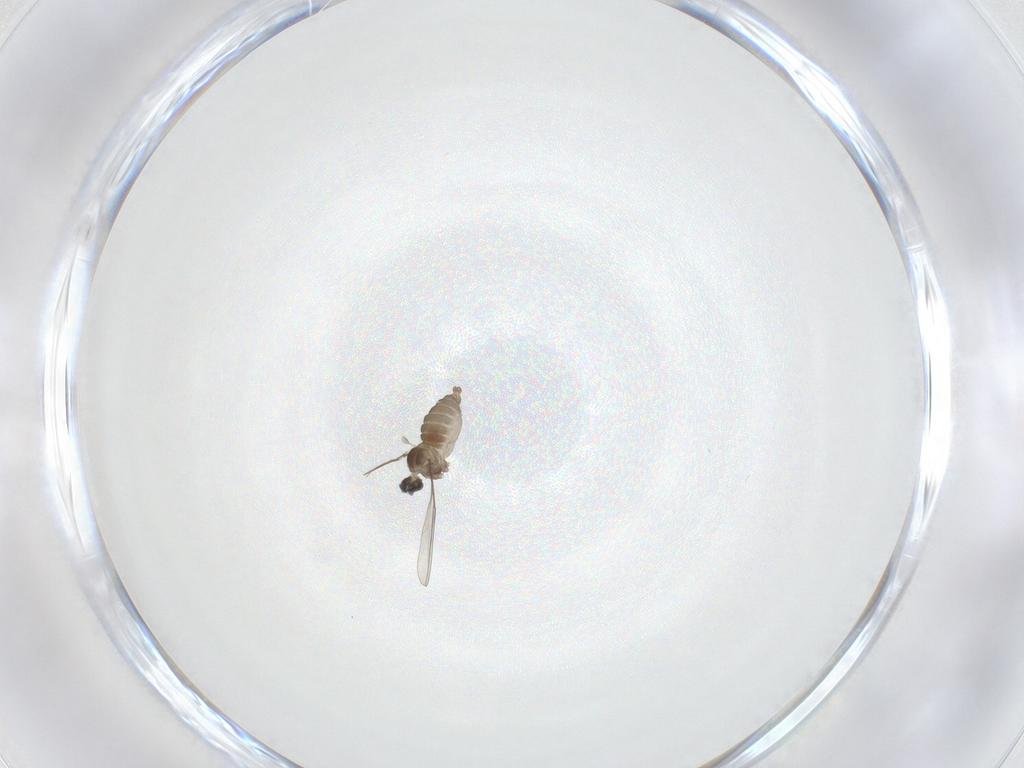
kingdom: Animalia
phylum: Arthropoda
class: Insecta
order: Diptera
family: Cecidomyiidae
